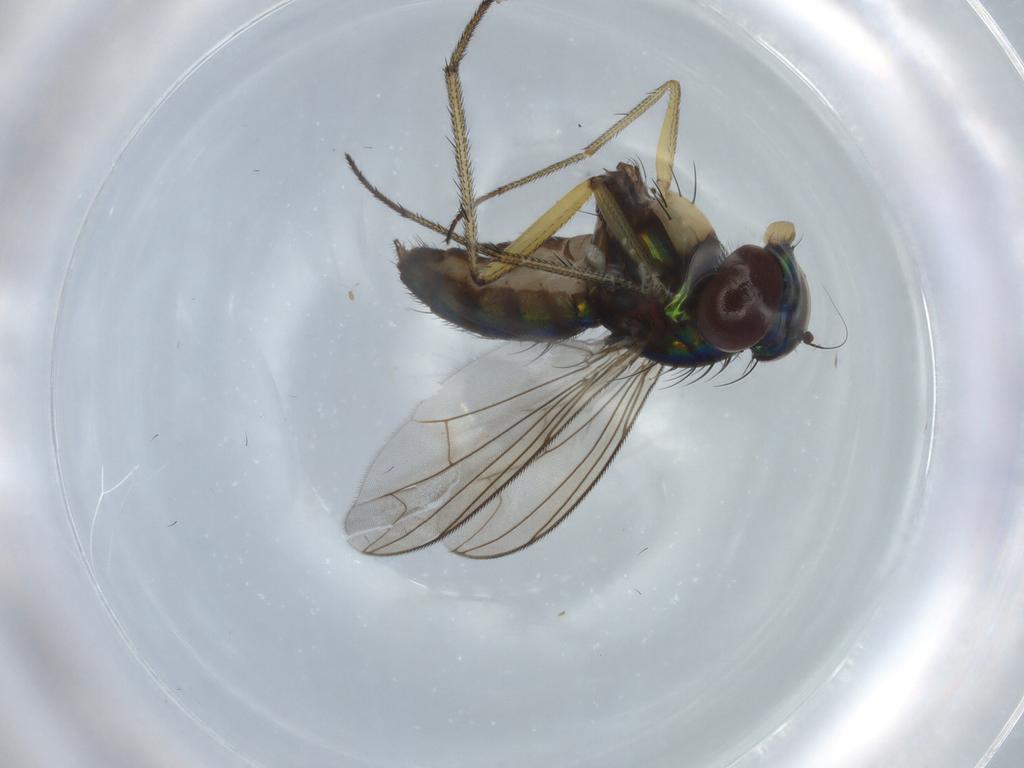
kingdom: Animalia
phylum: Arthropoda
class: Insecta
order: Diptera
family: Dolichopodidae
